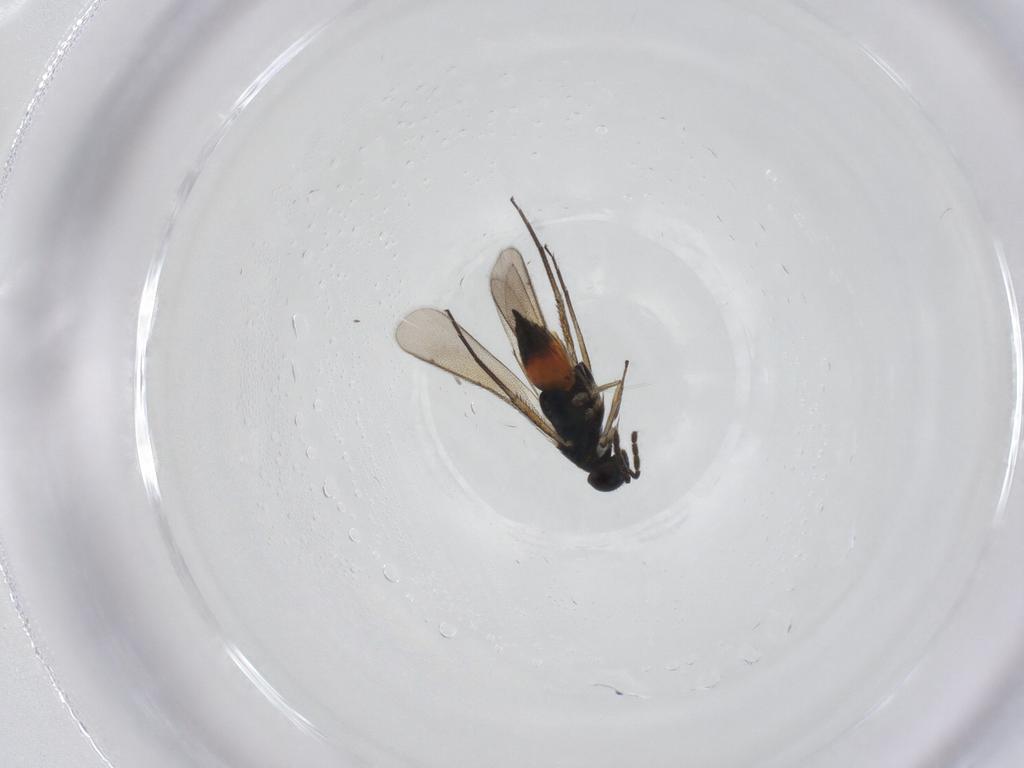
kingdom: Animalia
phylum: Arthropoda
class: Insecta
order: Hymenoptera
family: Eulophidae
